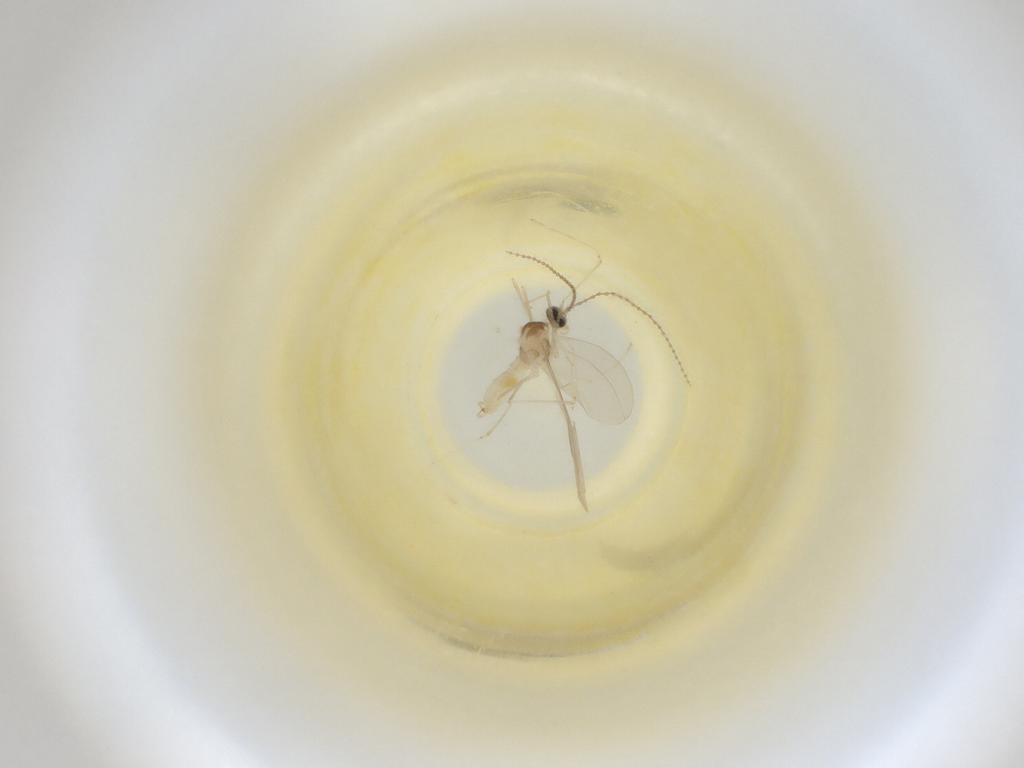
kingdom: Animalia
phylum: Arthropoda
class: Insecta
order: Diptera
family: Cecidomyiidae
